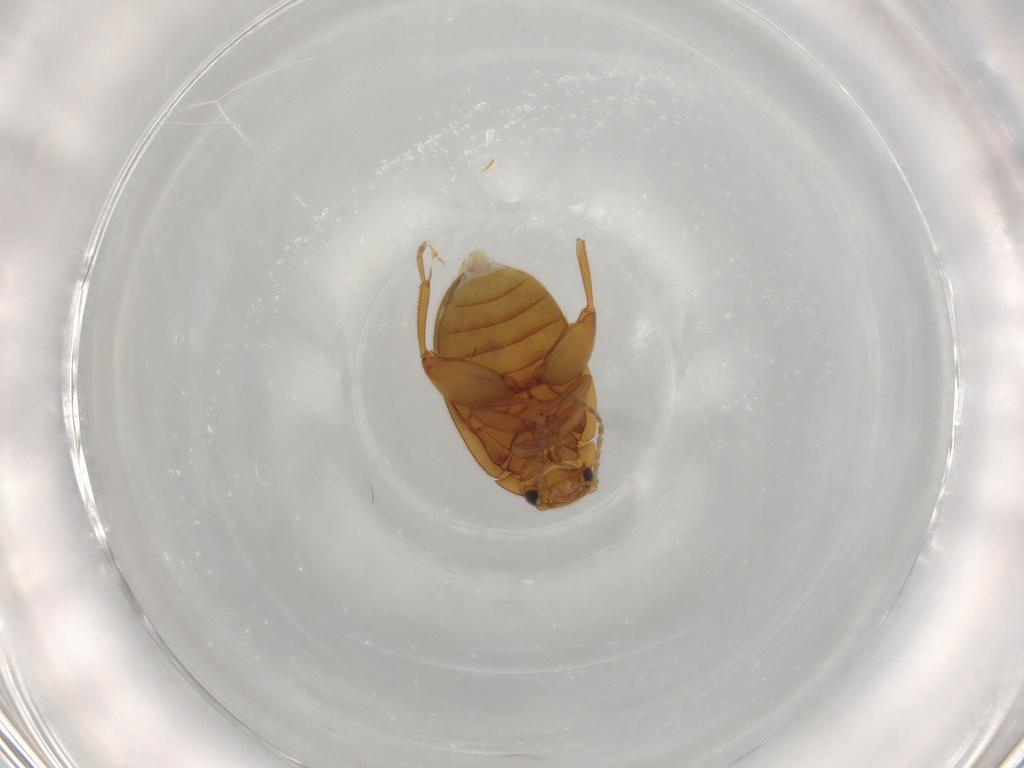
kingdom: Animalia
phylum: Arthropoda
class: Insecta
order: Coleoptera
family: Scirtidae
